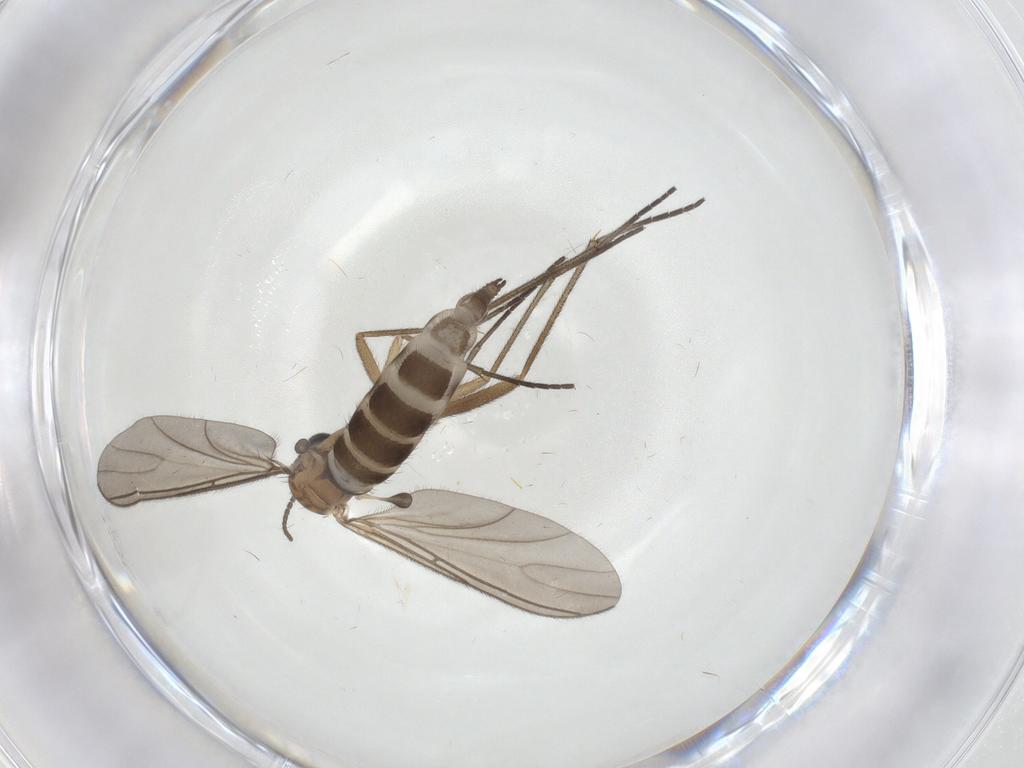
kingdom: Animalia
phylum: Arthropoda
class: Insecta
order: Diptera
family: Sciaridae
